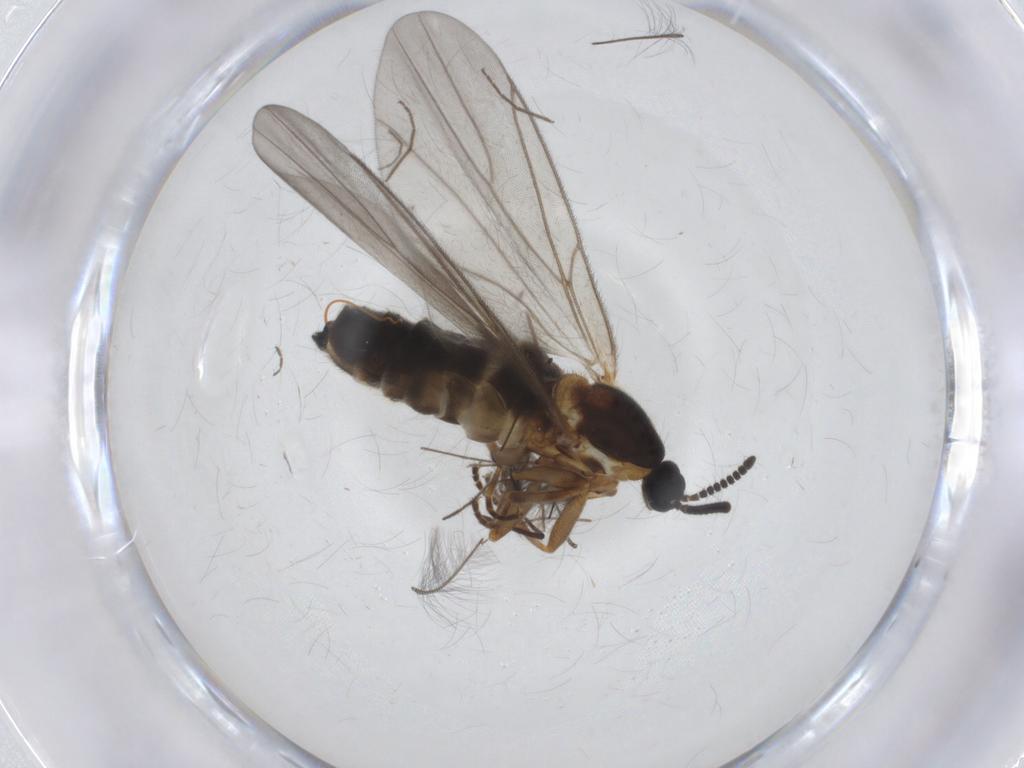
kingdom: Animalia
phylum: Arthropoda
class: Insecta
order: Diptera
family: Scatopsidae
